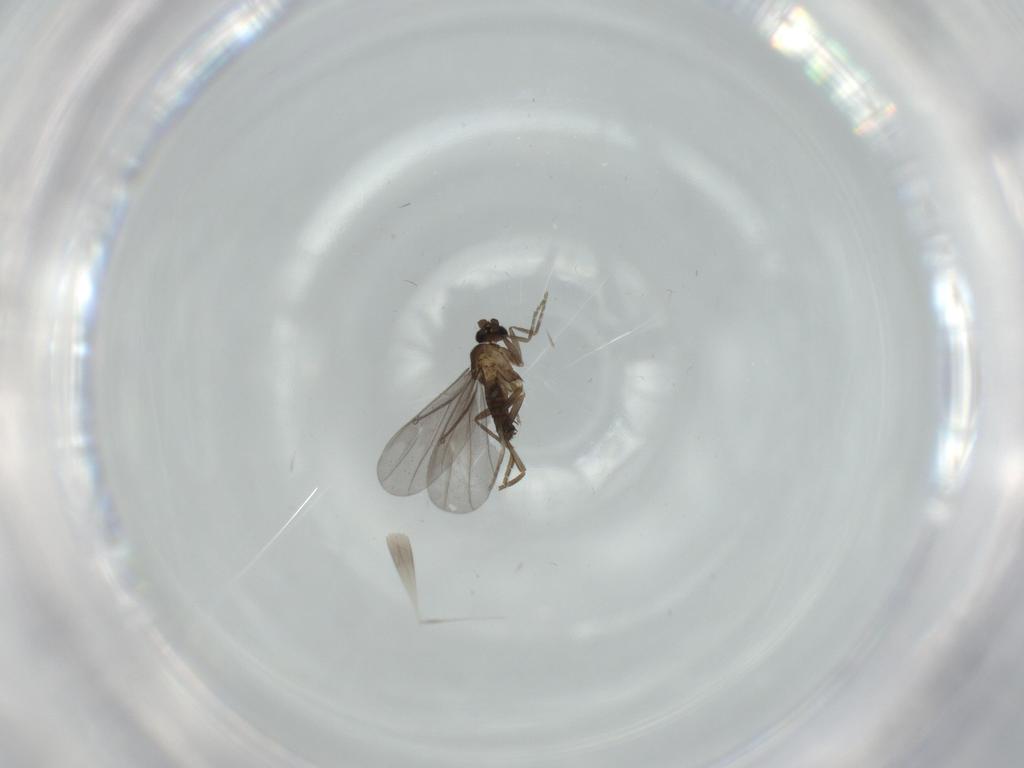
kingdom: Animalia
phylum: Arthropoda
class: Insecta
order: Diptera
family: Phoridae
